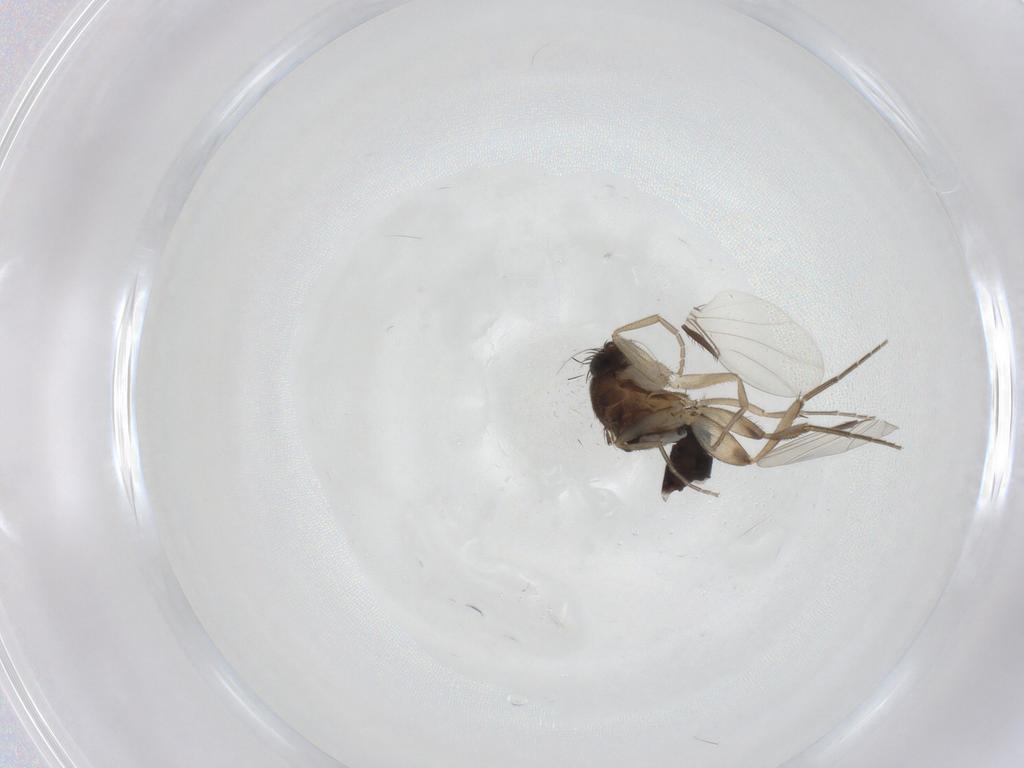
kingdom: Animalia
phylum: Arthropoda
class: Insecta
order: Diptera
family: Phoridae
